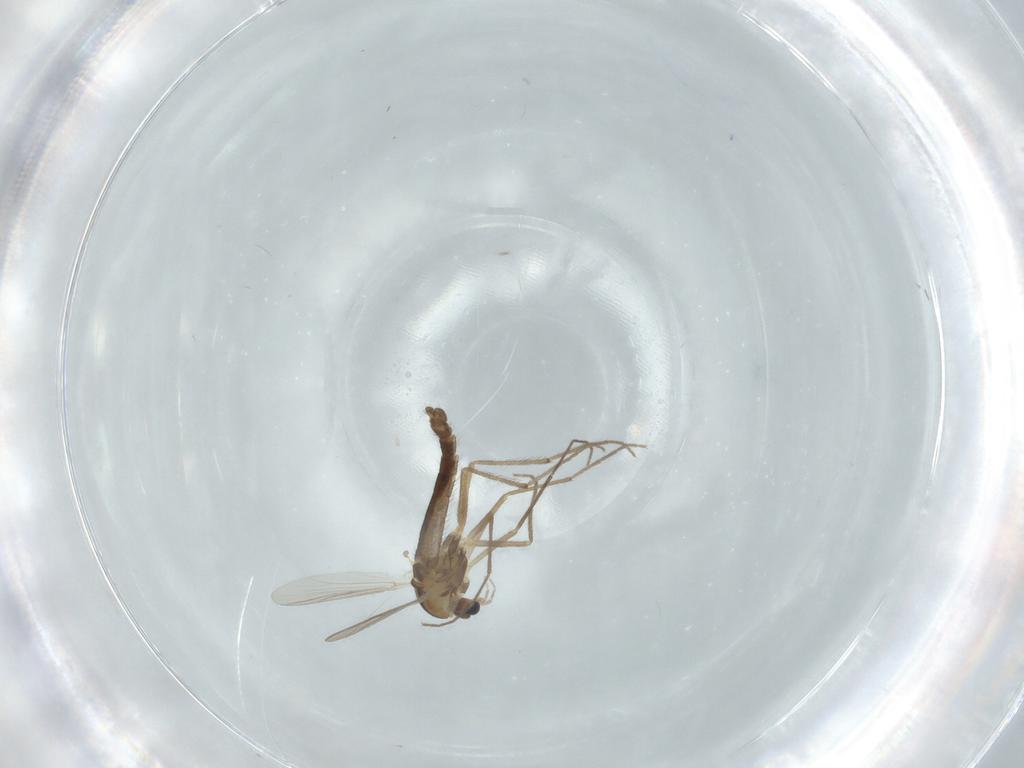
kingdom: Animalia
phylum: Arthropoda
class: Insecta
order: Diptera
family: Chironomidae
